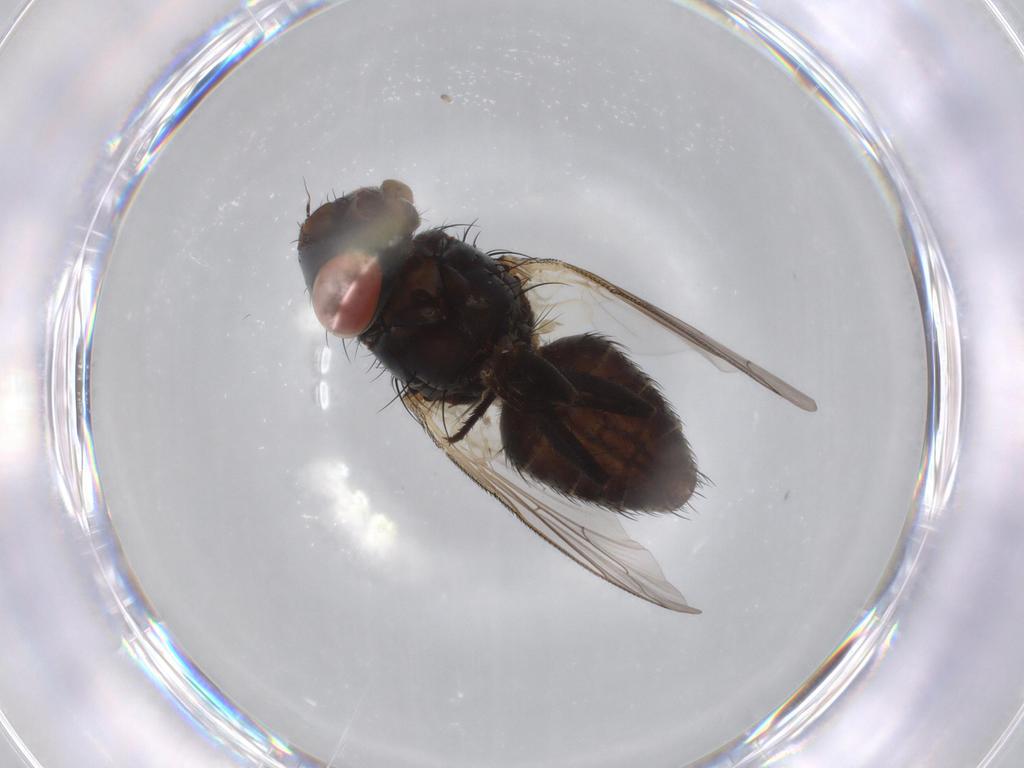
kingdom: Animalia
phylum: Arthropoda
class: Insecta
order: Diptera
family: Sarcophagidae
